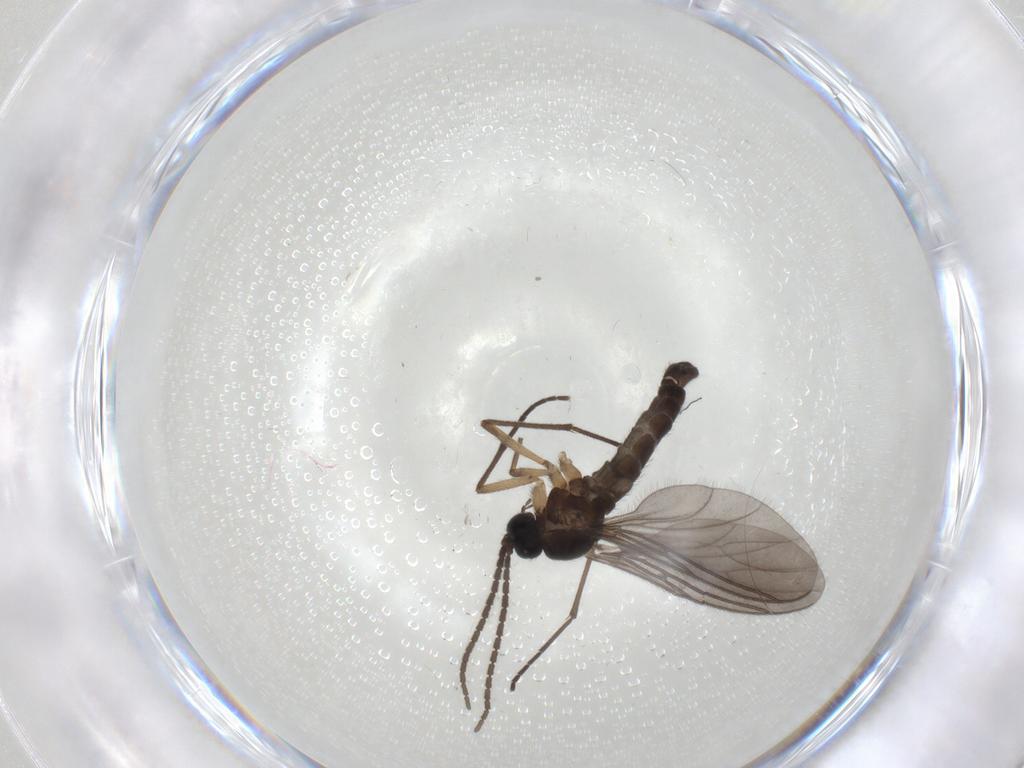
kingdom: Animalia
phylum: Arthropoda
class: Insecta
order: Diptera
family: Sciaridae
